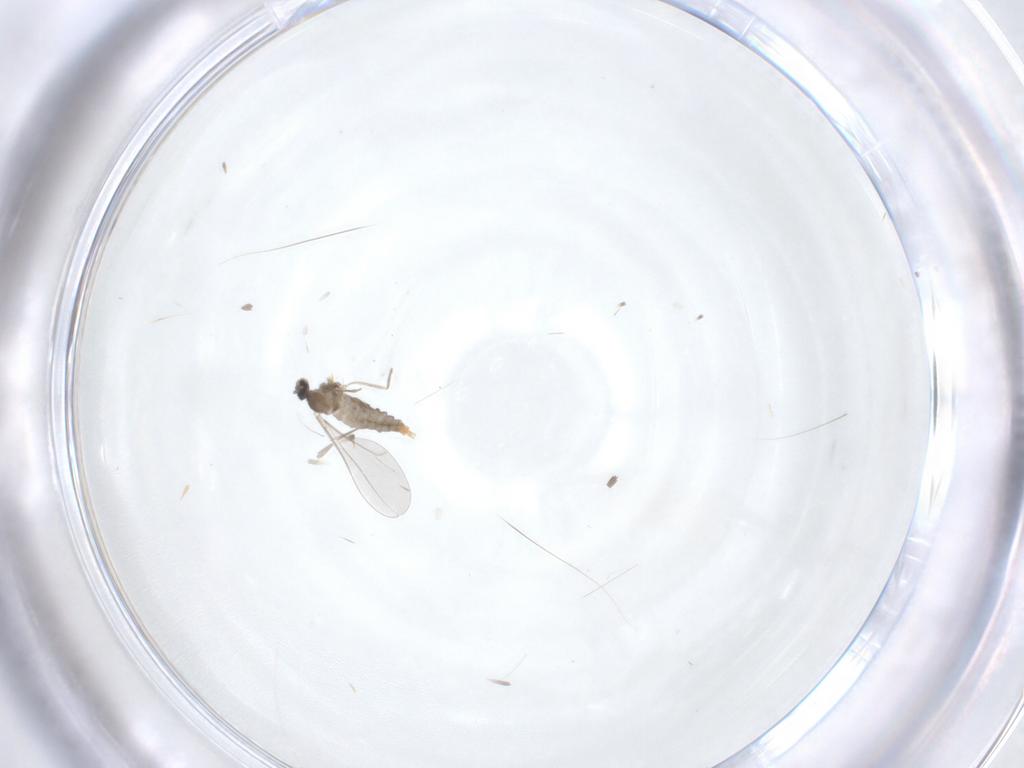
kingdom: Animalia
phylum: Arthropoda
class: Insecta
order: Diptera
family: Cecidomyiidae
